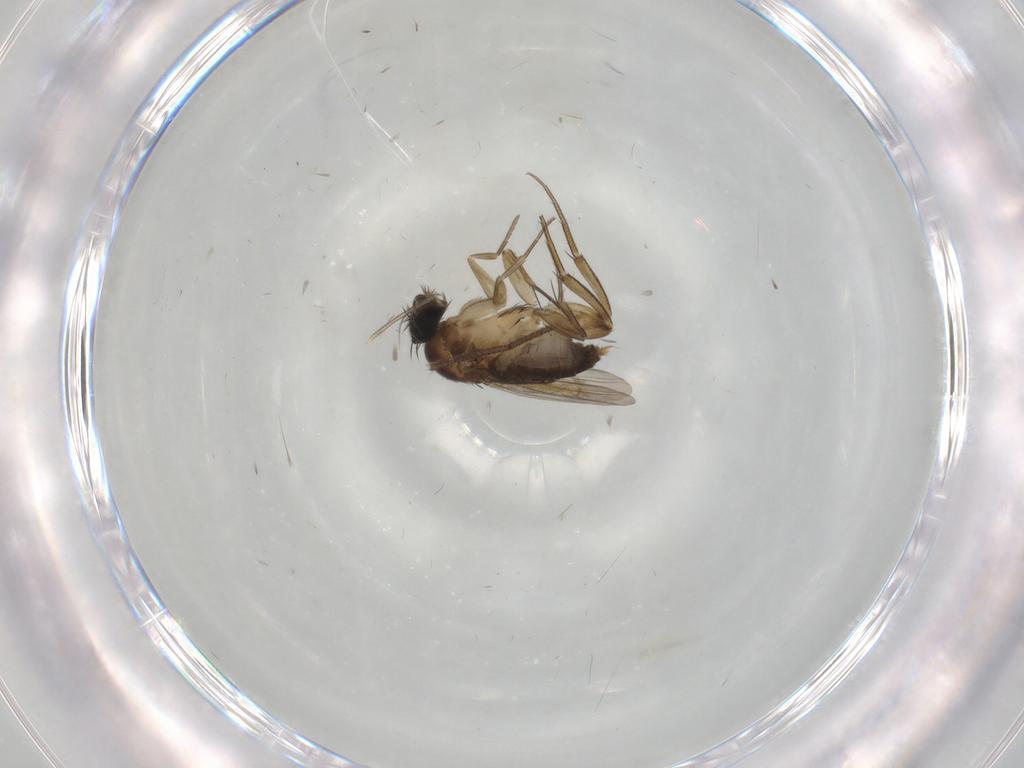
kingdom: Animalia
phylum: Arthropoda
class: Insecta
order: Diptera
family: Phoridae
